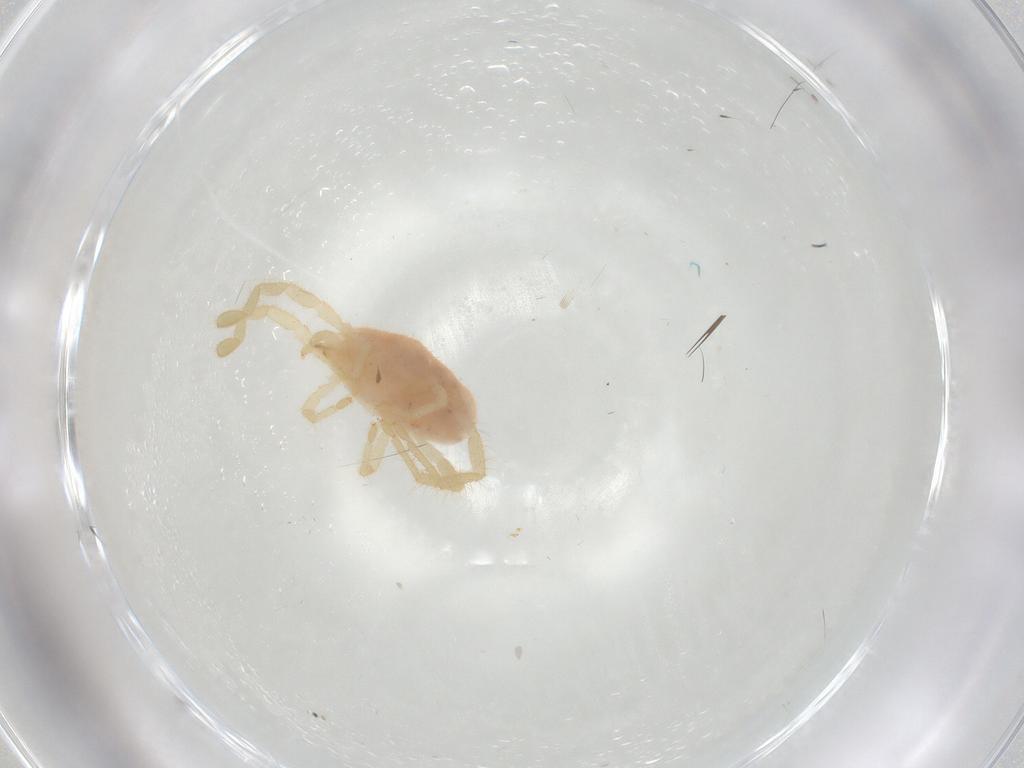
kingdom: Animalia
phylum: Arthropoda
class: Arachnida
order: Trombidiformes
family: Erythraeidae
